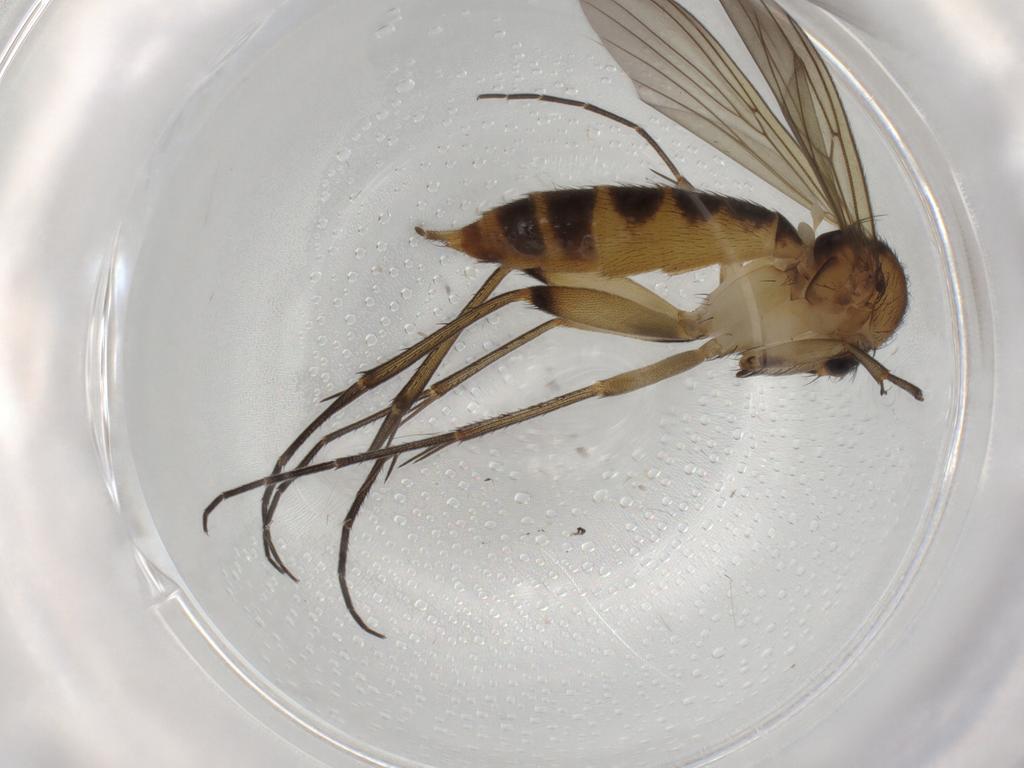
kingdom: Animalia
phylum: Arthropoda
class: Insecta
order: Diptera
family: Mycetophilidae
